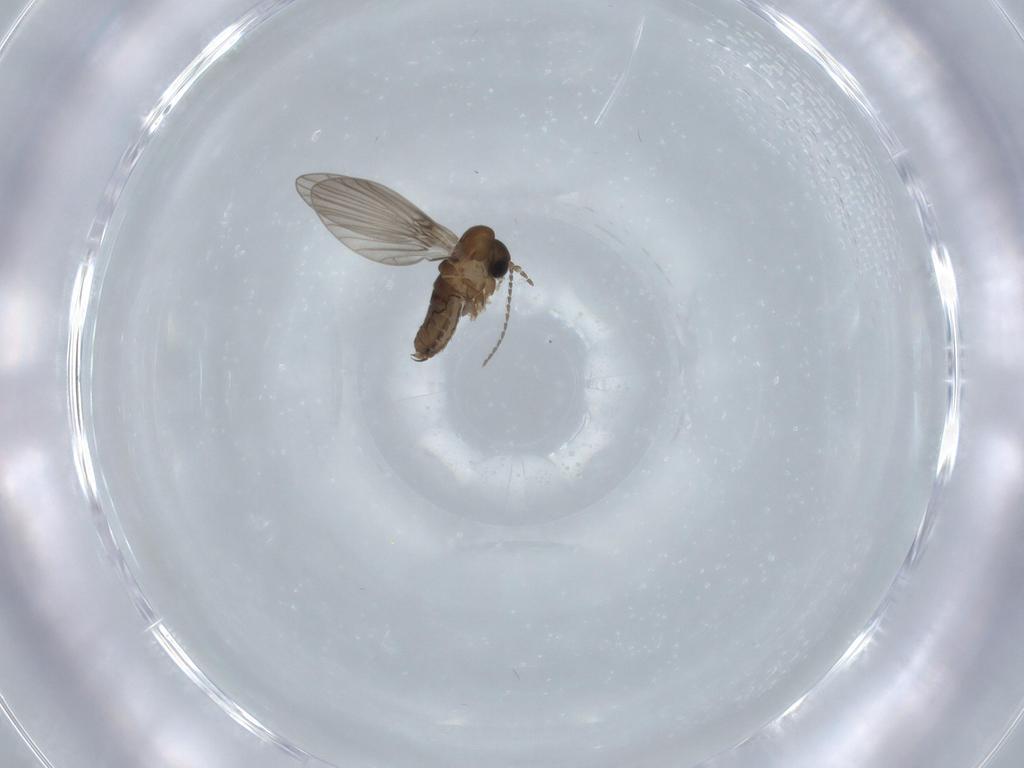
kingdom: Animalia
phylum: Arthropoda
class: Insecta
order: Diptera
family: Psychodidae
